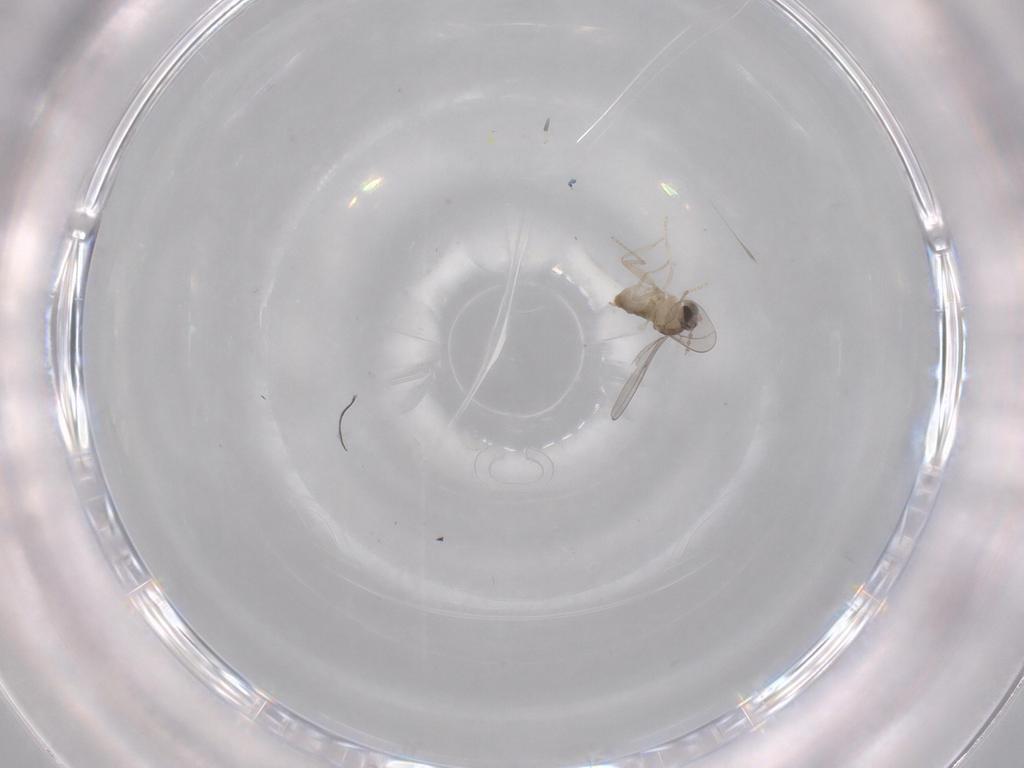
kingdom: Animalia
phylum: Arthropoda
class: Insecta
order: Diptera
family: Cecidomyiidae
